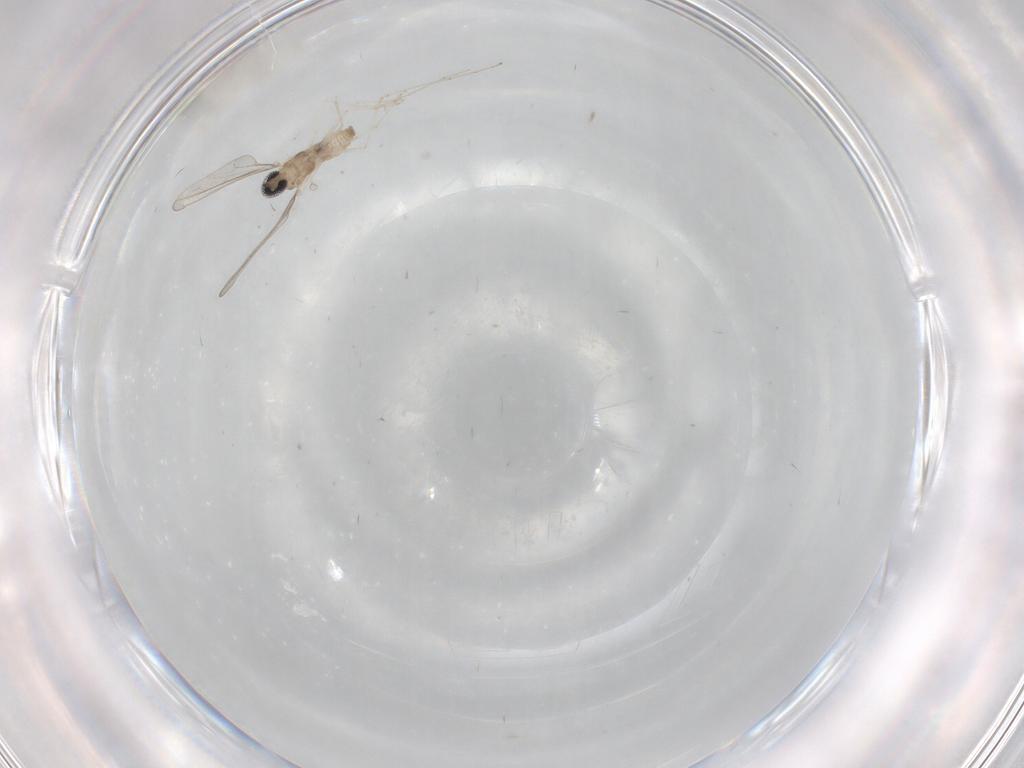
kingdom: Animalia
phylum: Arthropoda
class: Insecta
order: Diptera
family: Cecidomyiidae
